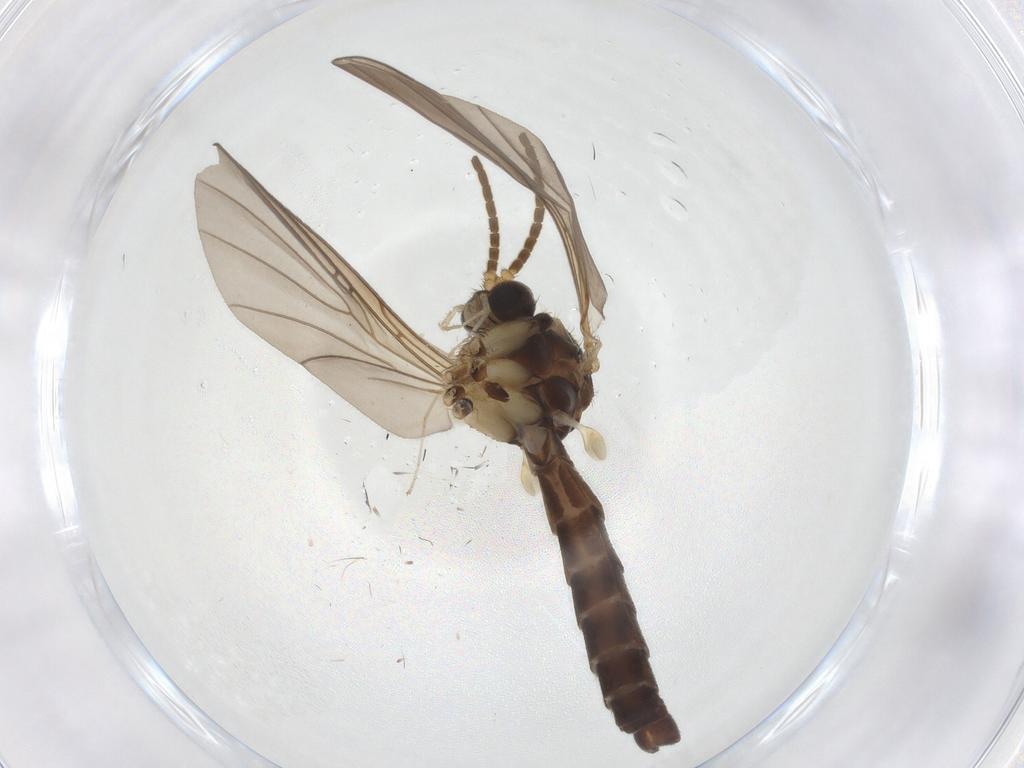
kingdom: Animalia
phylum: Arthropoda
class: Insecta
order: Diptera
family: Mycetophilidae
